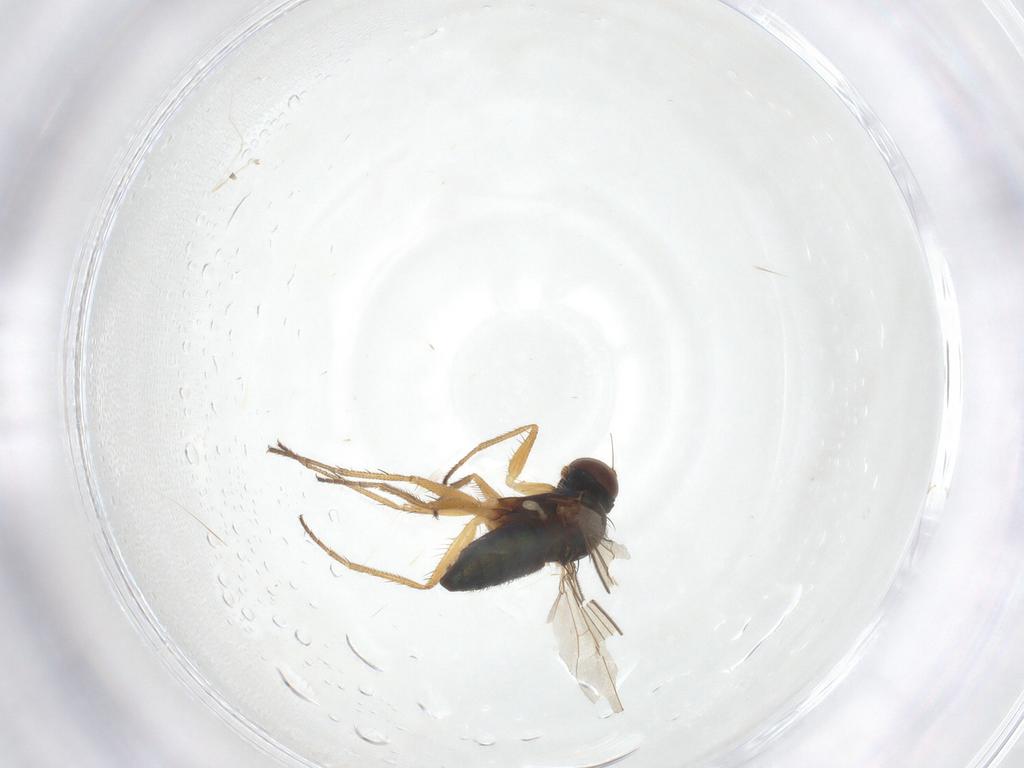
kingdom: Animalia
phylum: Arthropoda
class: Insecta
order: Diptera
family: Cecidomyiidae
